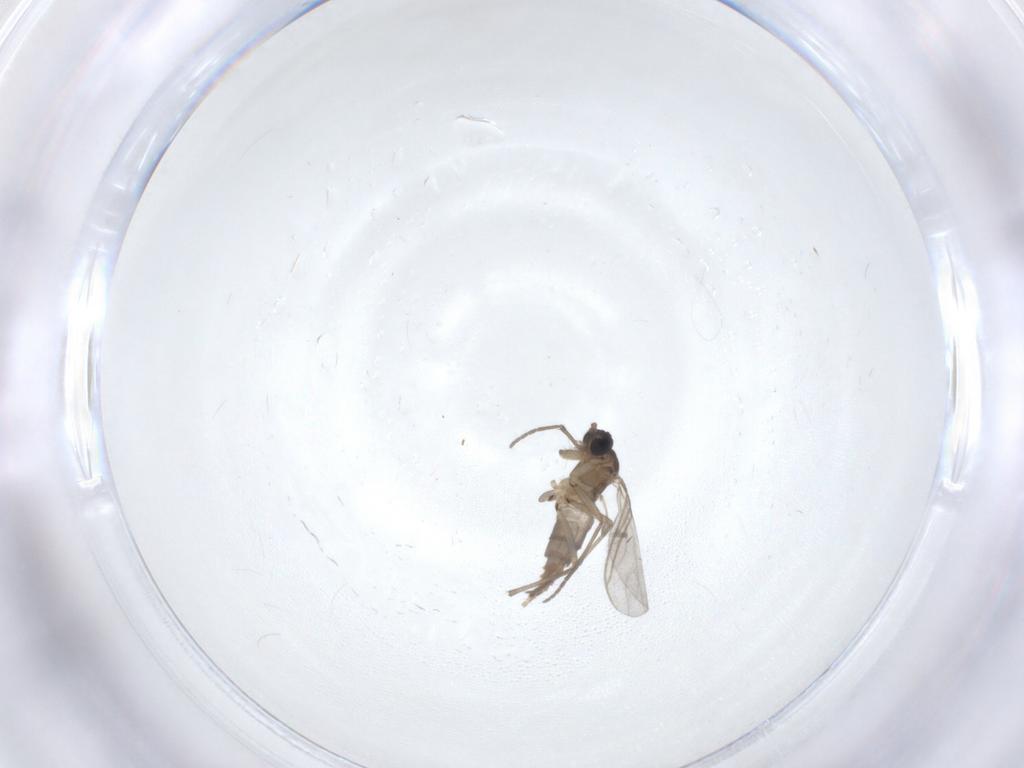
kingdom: Animalia
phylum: Arthropoda
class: Insecta
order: Diptera
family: Sciaridae
